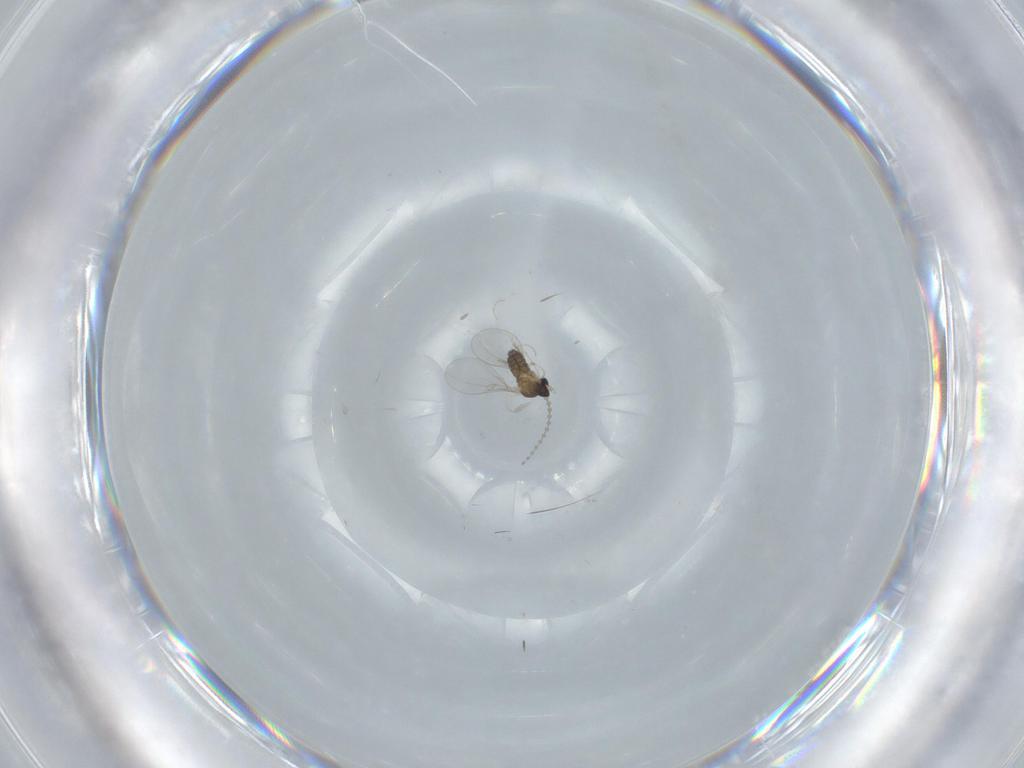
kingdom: Animalia
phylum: Arthropoda
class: Insecta
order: Diptera
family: Cecidomyiidae
